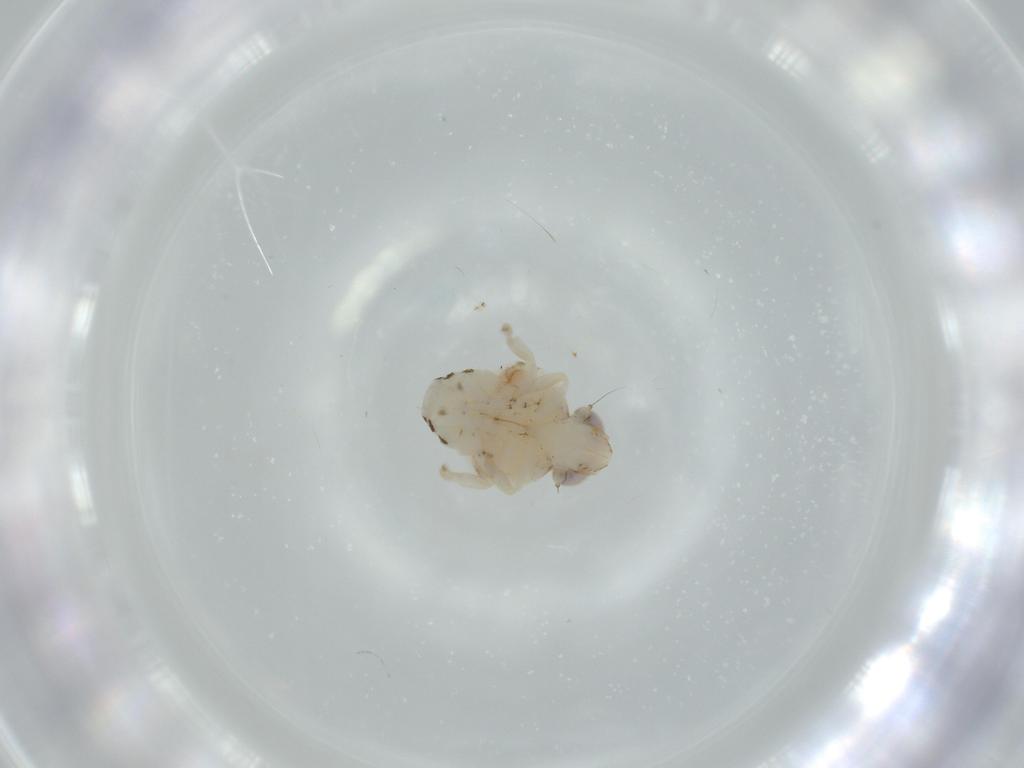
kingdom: Animalia
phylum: Arthropoda
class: Insecta
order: Hemiptera
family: Nogodinidae
